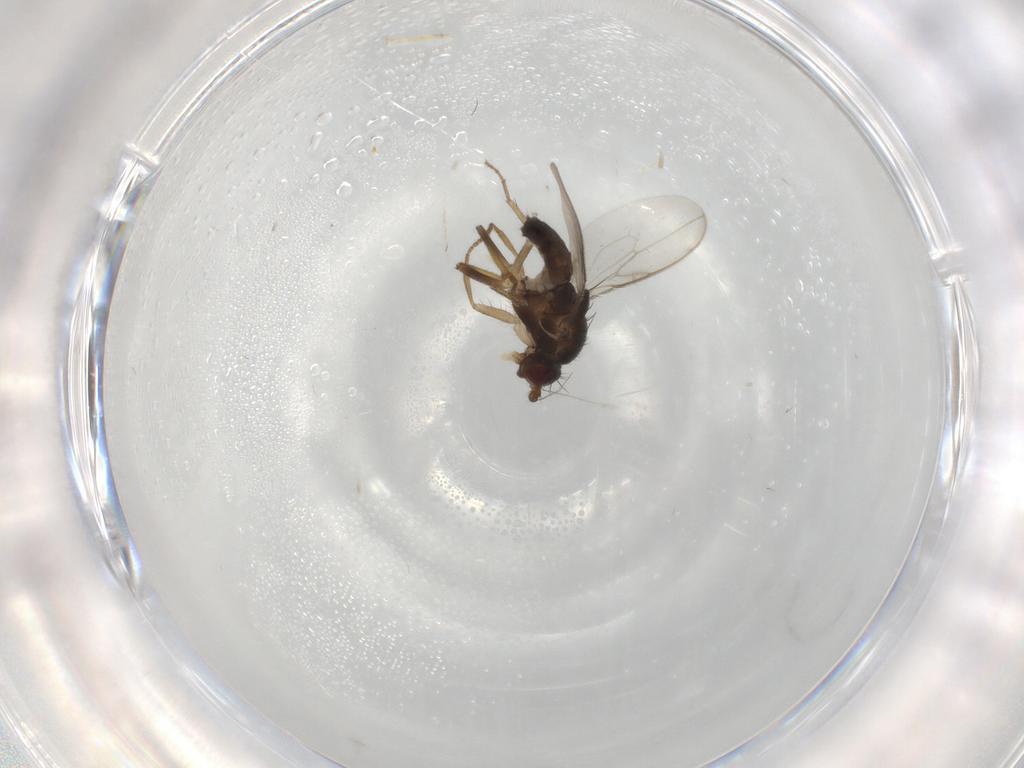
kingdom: Animalia
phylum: Arthropoda
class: Insecta
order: Diptera
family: Sphaeroceridae
